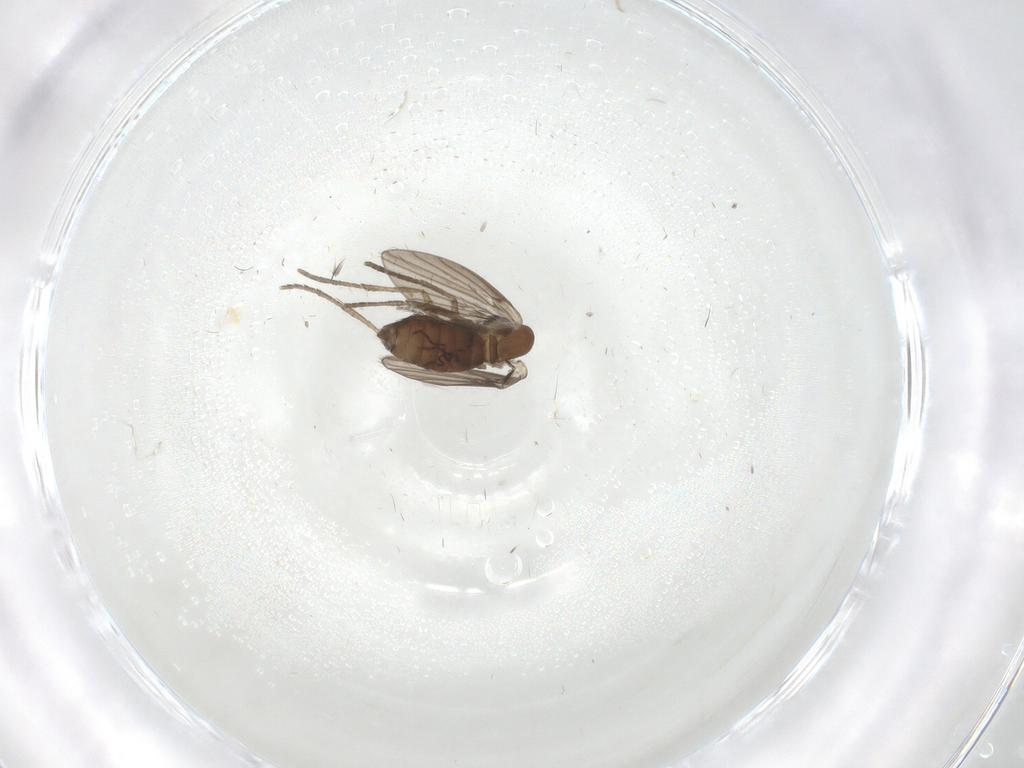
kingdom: Animalia
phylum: Arthropoda
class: Insecta
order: Diptera
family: Psychodidae
